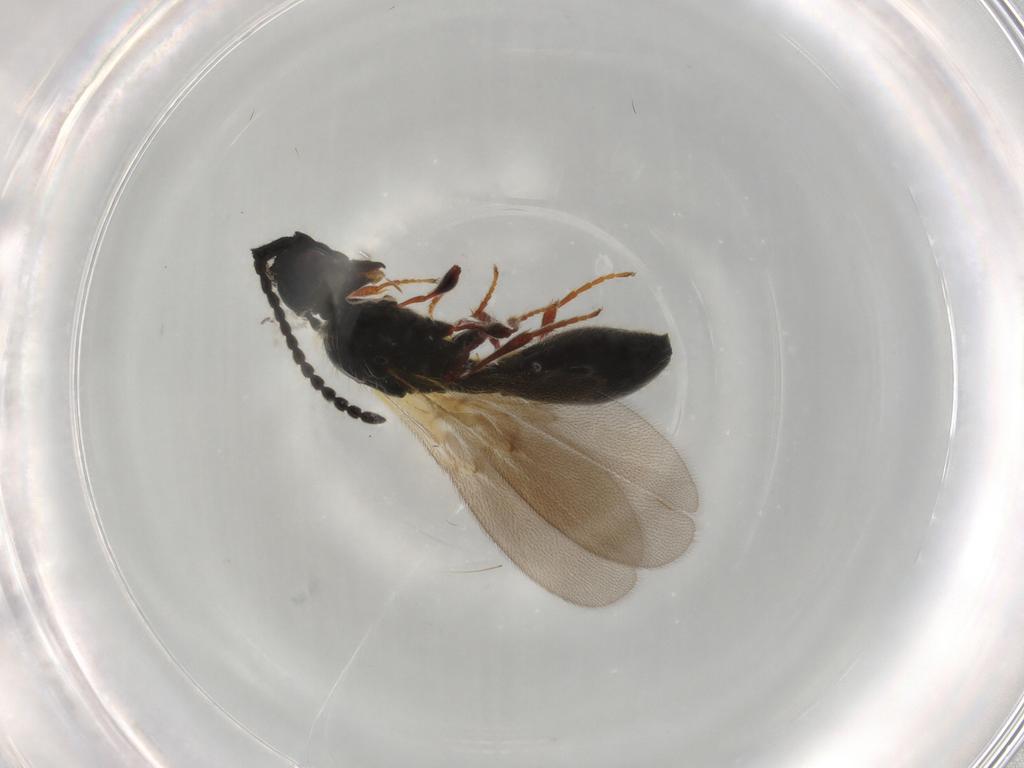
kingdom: Animalia
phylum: Arthropoda
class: Insecta
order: Hymenoptera
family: Diapriidae
